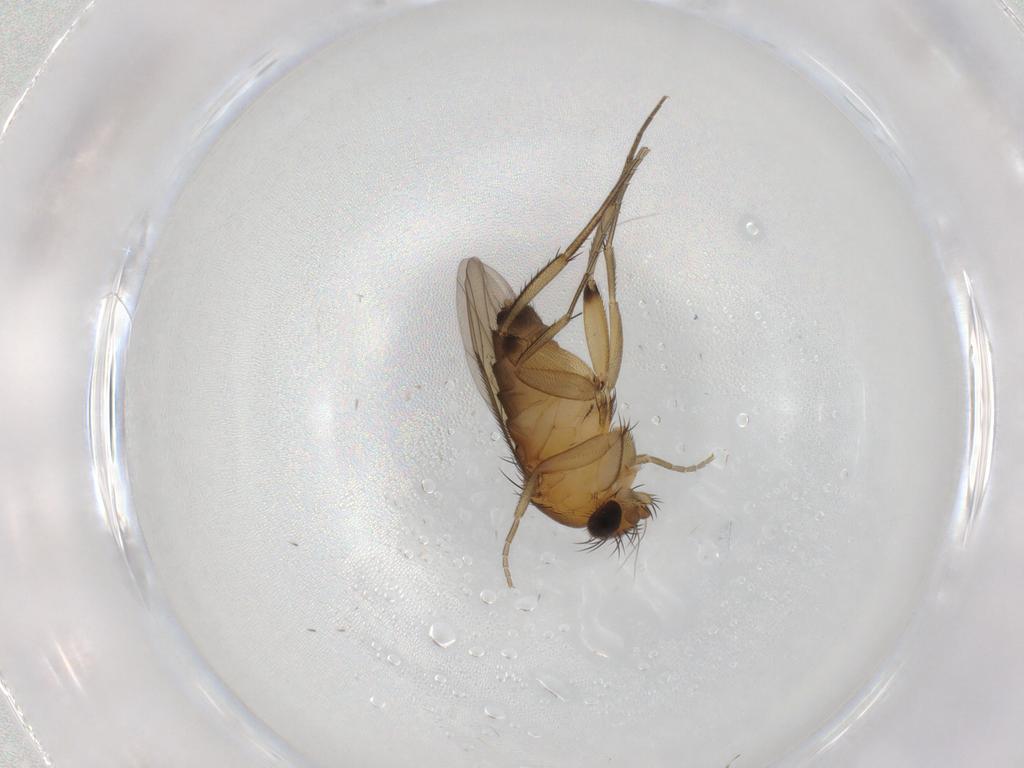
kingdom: Animalia
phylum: Arthropoda
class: Insecta
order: Diptera
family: Phoridae
